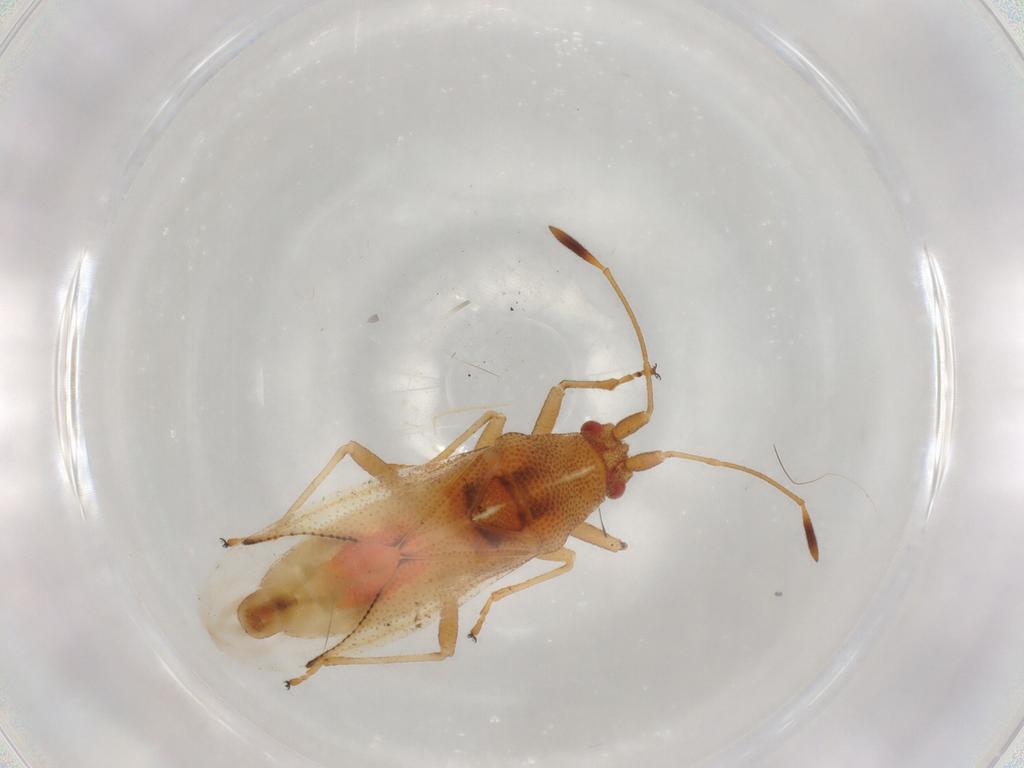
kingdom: Animalia
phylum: Arthropoda
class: Insecta
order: Hemiptera
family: Cymidae
